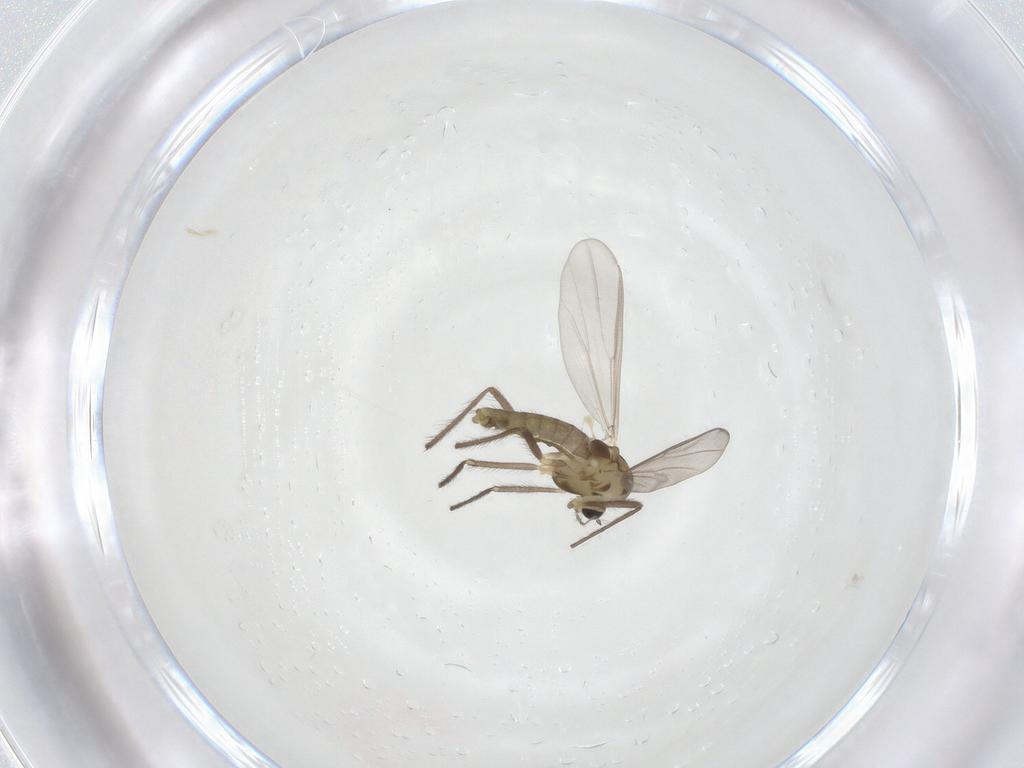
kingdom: Animalia
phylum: Arthropoda
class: Insecta
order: Diptera
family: Chironomidae
